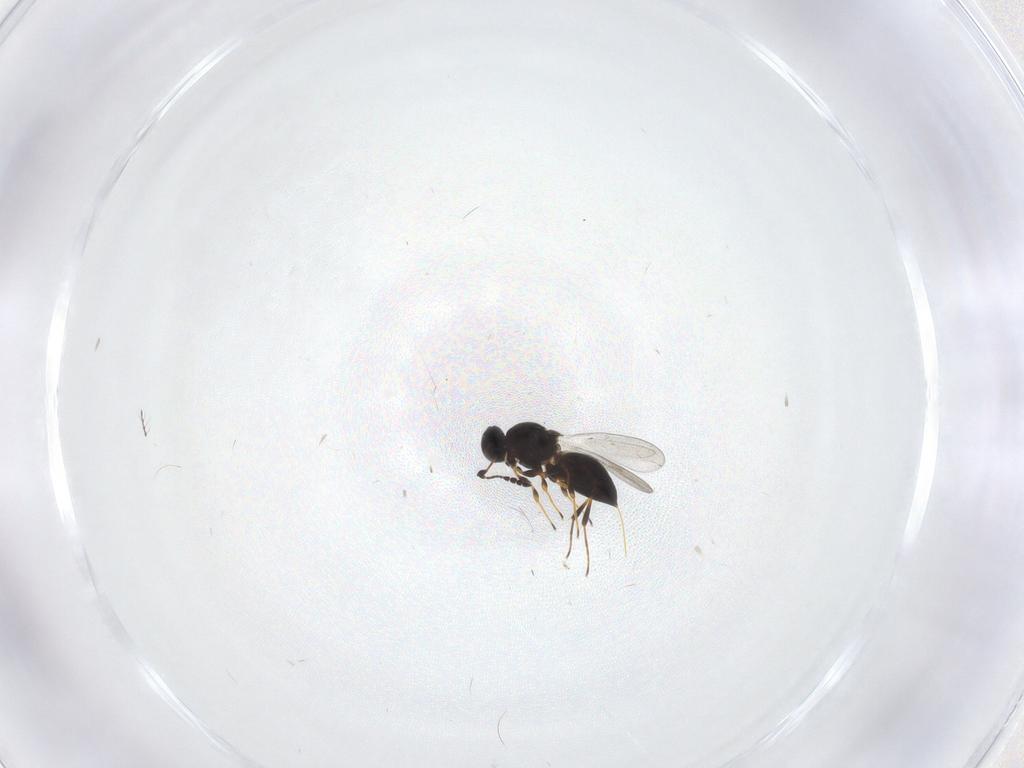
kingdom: Animalia
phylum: Arthropoda
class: Insecta
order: Hymenoptera
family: Platygastridae
